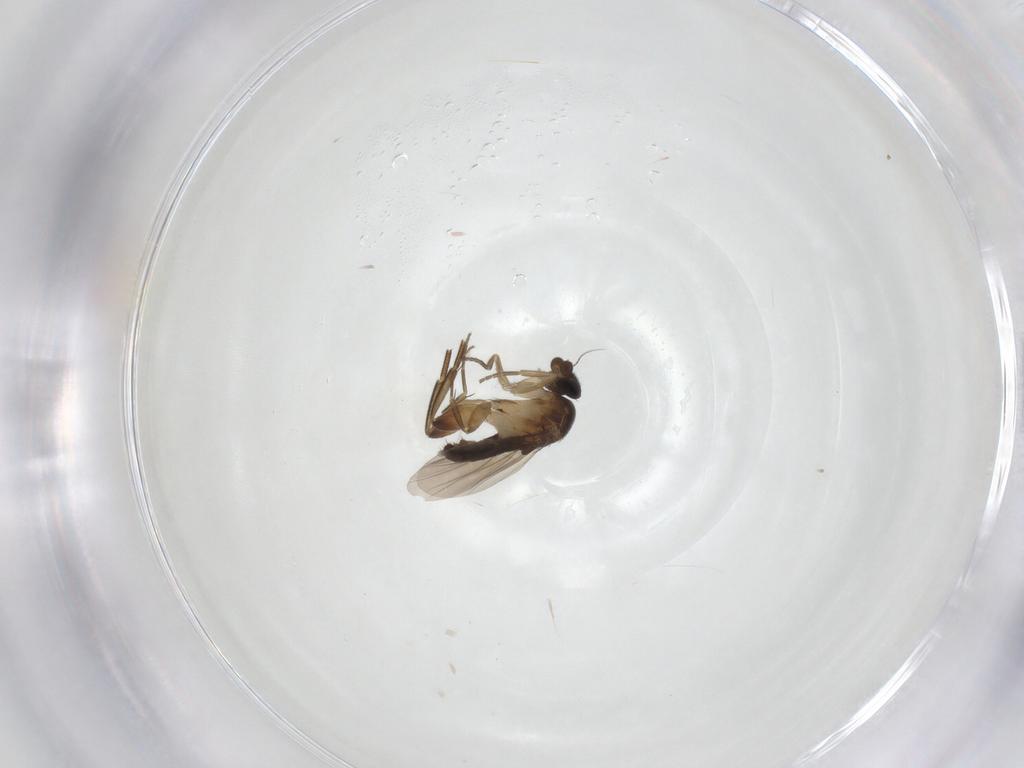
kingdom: Animalia
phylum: Arthropoda
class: Insecta
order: Diptera
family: Phoridae
